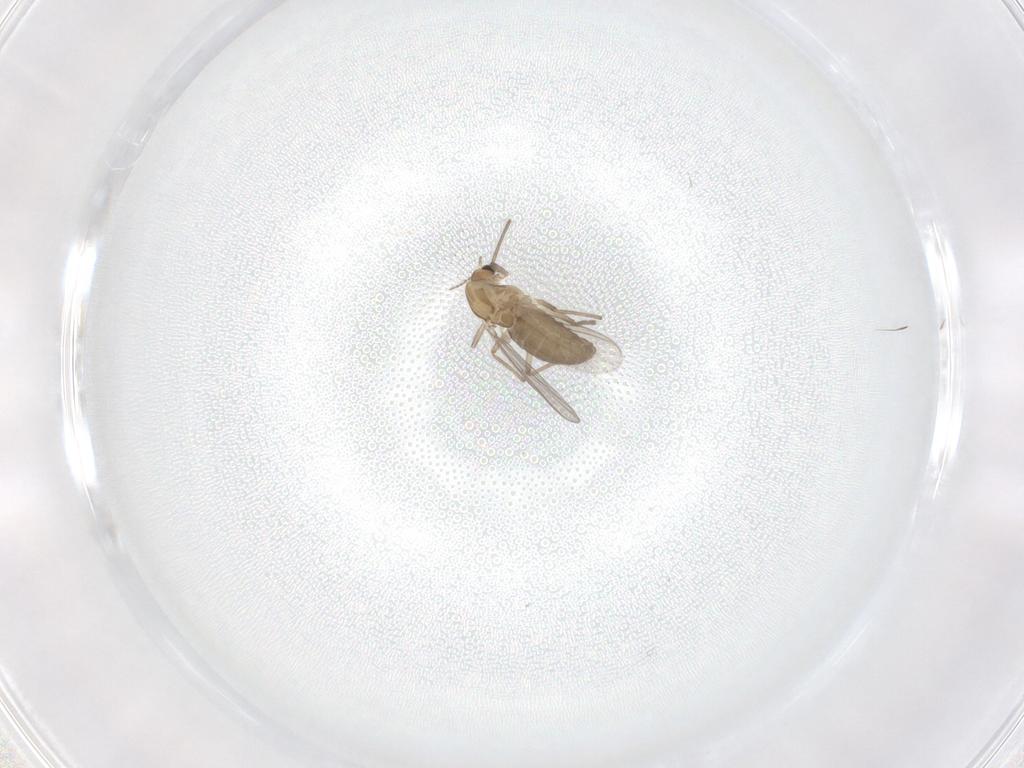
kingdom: Animalia
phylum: Arthropoda
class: Insecta
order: Diptera
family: Chironomidae
